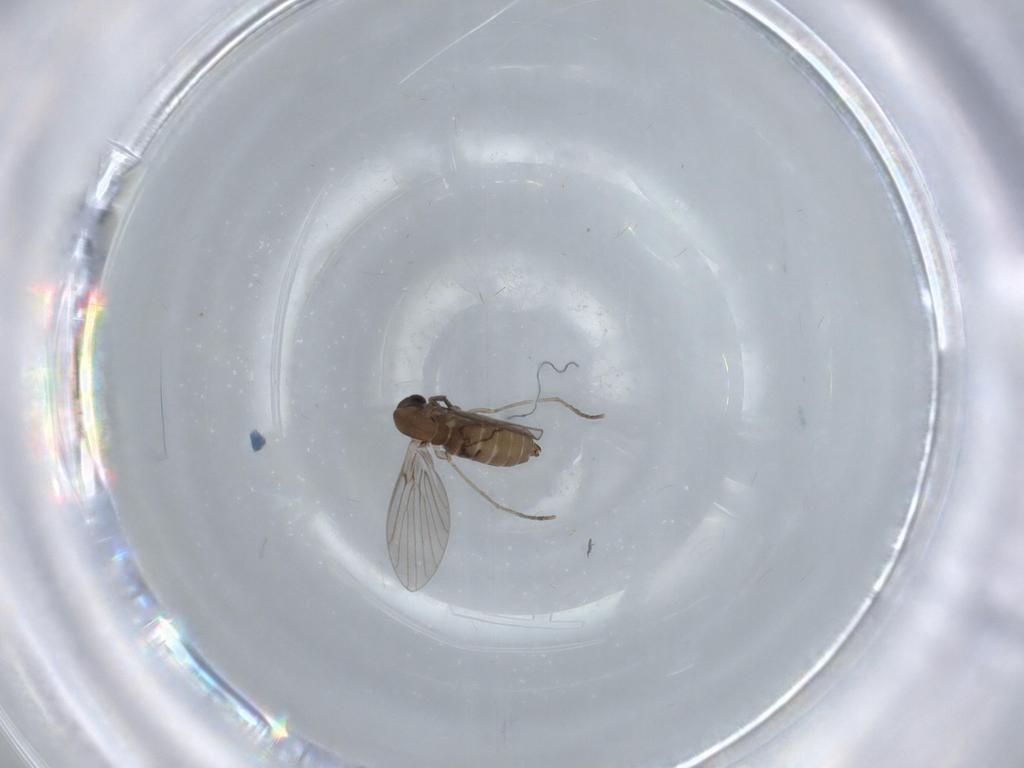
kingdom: Animalia
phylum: Arthropoda
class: Insecta
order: Diptera
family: Psychodidae
